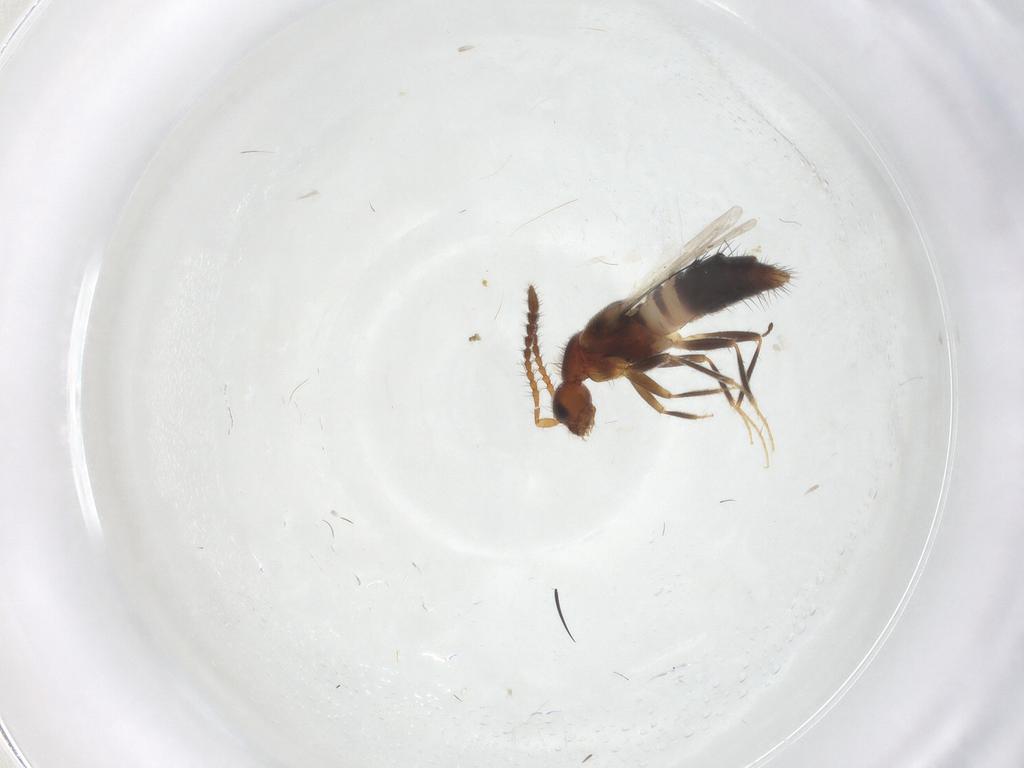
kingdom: Animalia
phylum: Arthropoda
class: Insecta
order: Coleoptera
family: Staphylinidae
